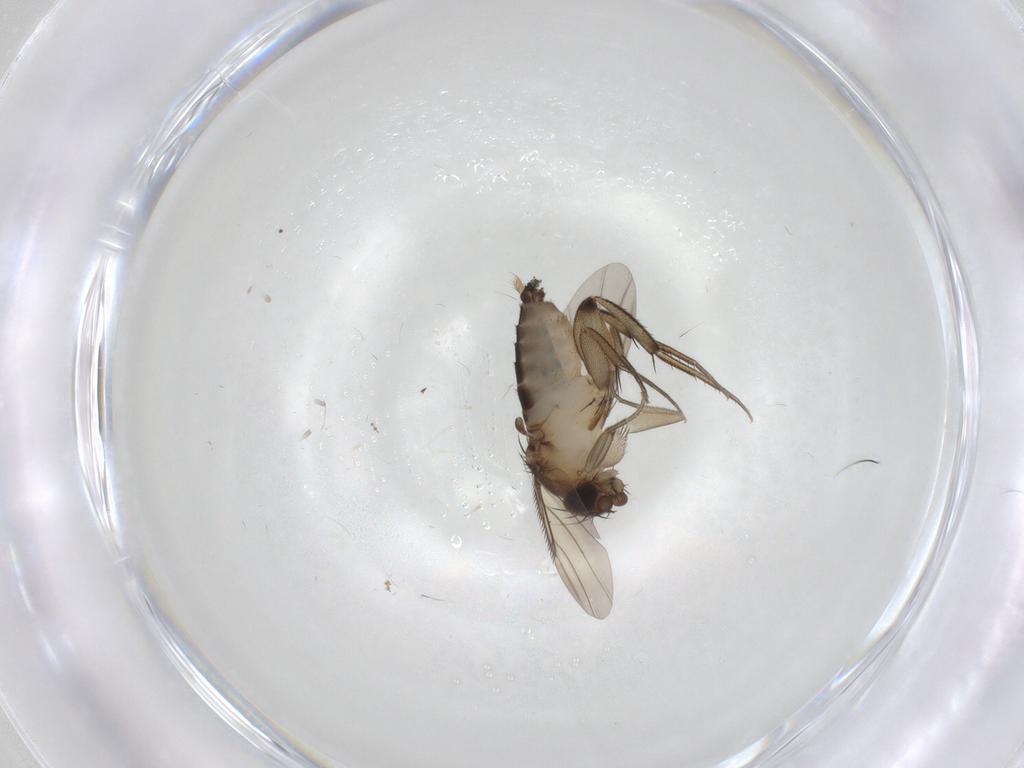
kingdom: Animalia
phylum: Arthropoda
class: Insecta
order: Diptera
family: Phoridae
